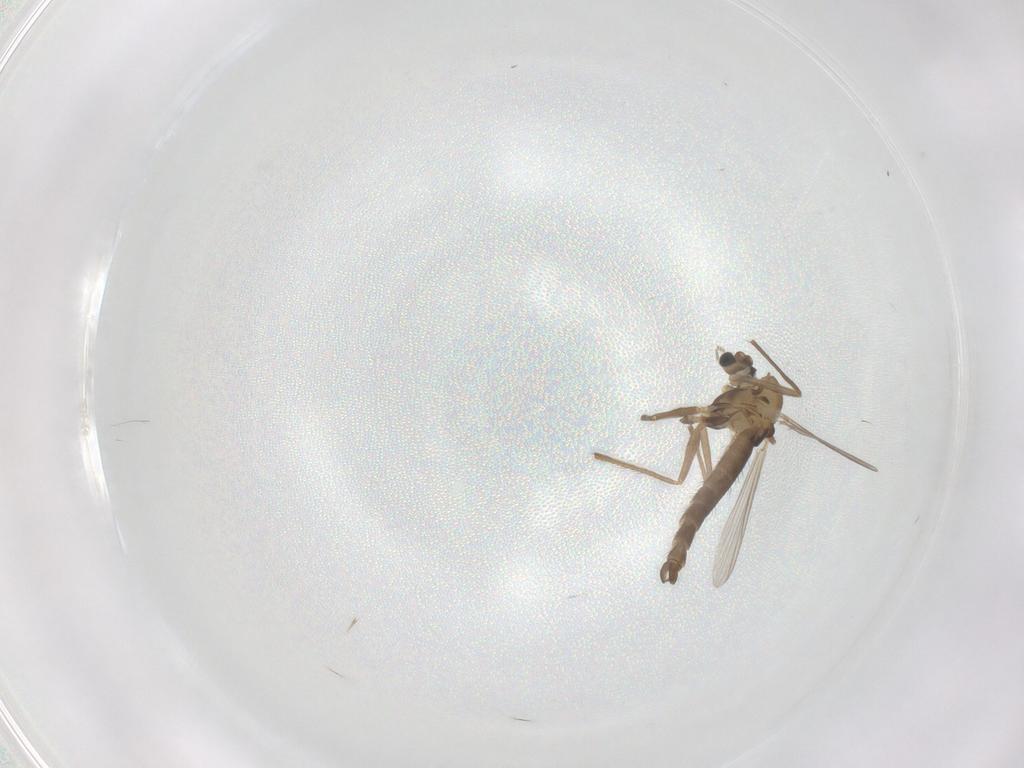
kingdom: Animalia
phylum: Arthropoda
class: Insecta
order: Diptera
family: Chironomidae
